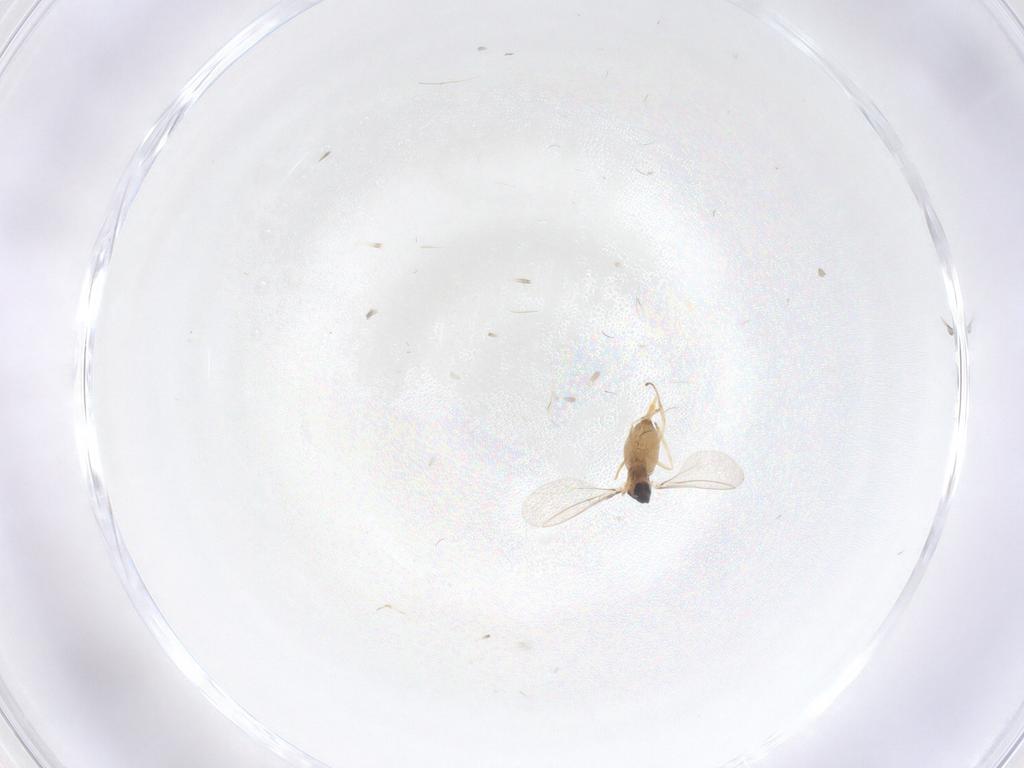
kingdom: Animalia
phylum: Arthropoda
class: Insecta
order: Diptera
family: Cecidomyiidae
